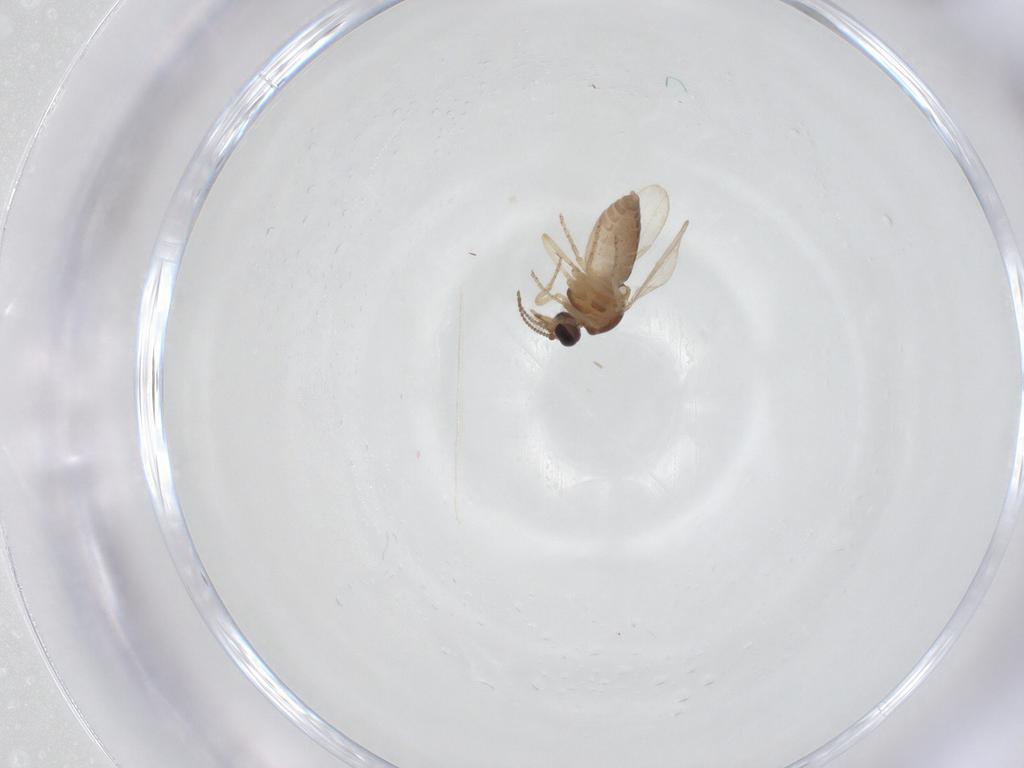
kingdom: Animalia
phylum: Arthropoda
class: Insecta
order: Diptera
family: Ceratopogonidae
